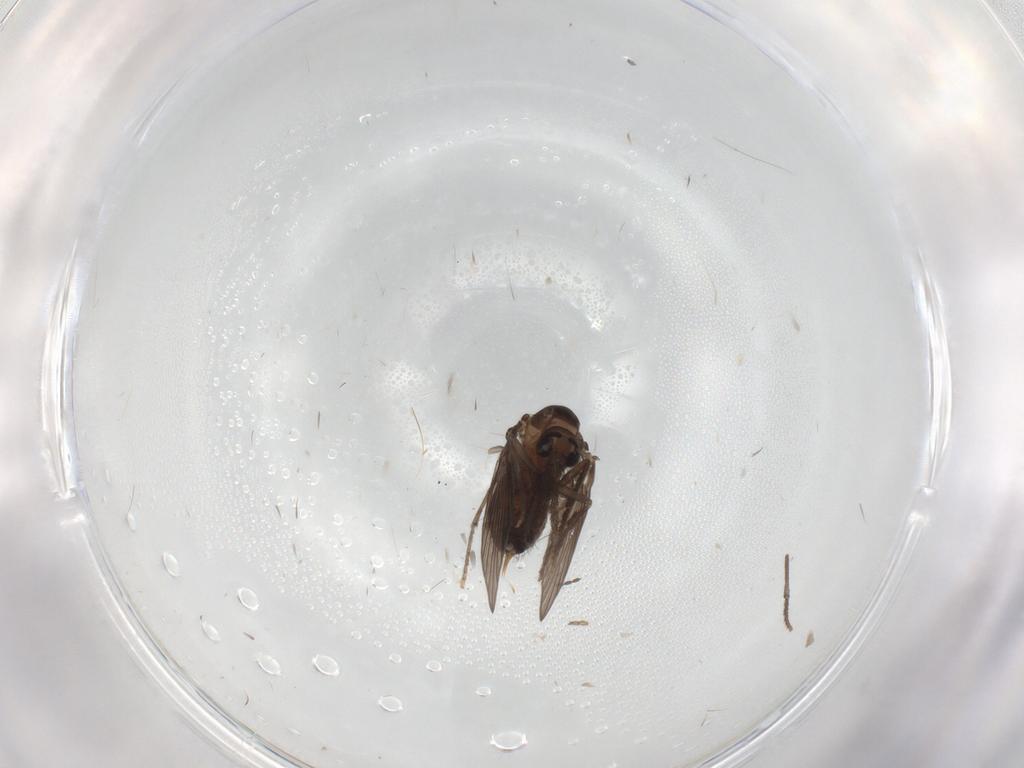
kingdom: Animalia
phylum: Arthropoda
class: Insecta
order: Diptera
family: Psychodidae
